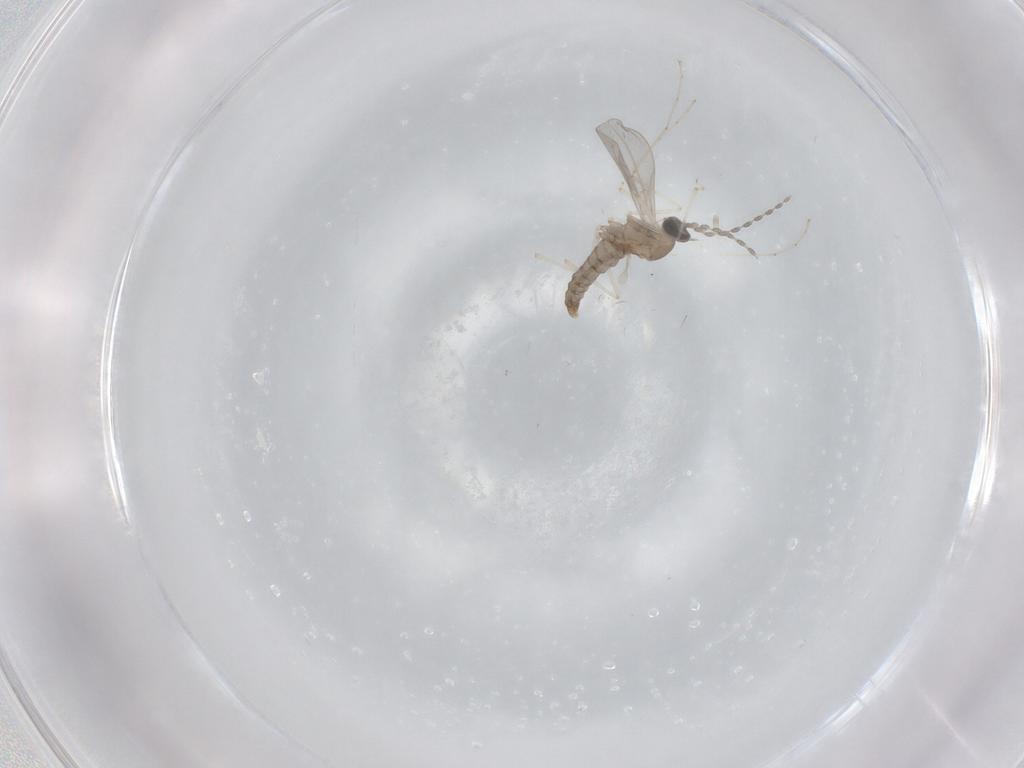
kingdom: Animalia
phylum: Arthropoda
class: Insecta
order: Diptera
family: Cecidomyiidae
